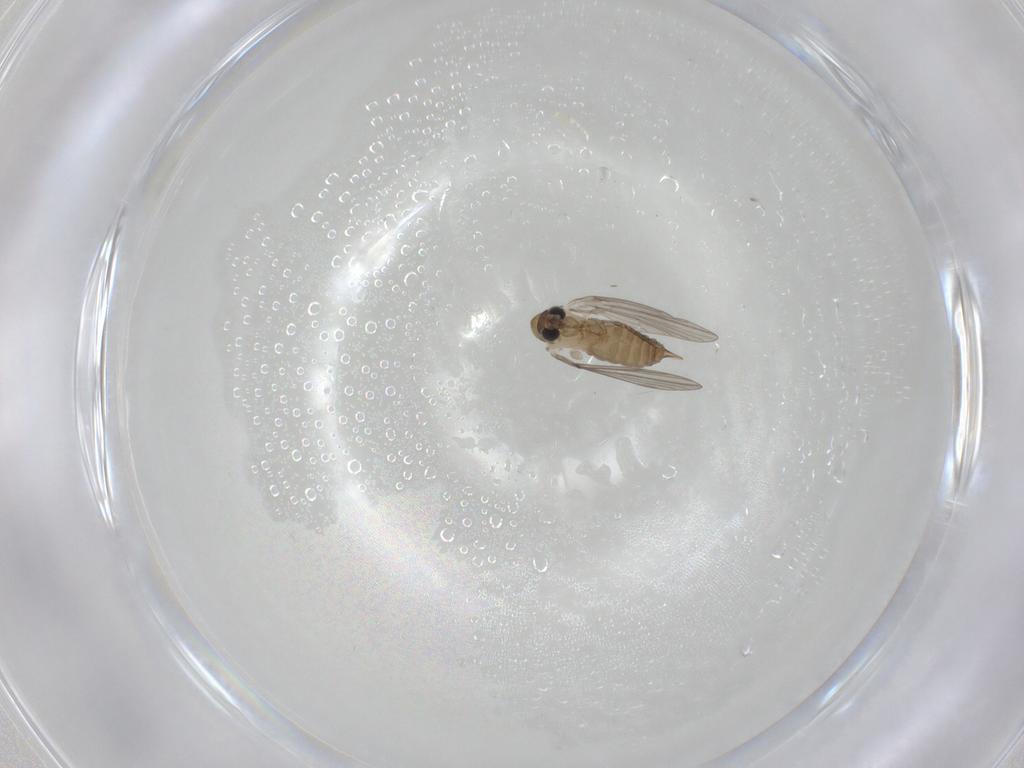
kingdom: Animalia
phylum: Arthropoda
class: Insecta
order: Diptera
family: Psychodidae
